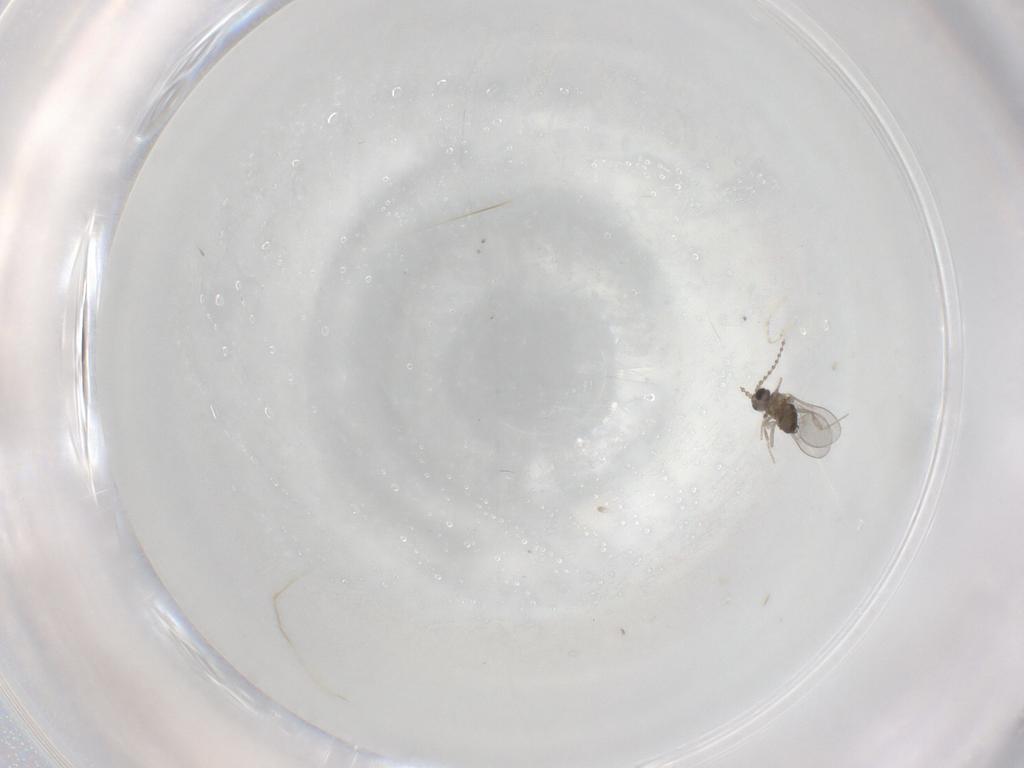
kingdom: Animalia
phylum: Arthropoda
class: Insecta
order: Diptera
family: Cecidomyiidae
